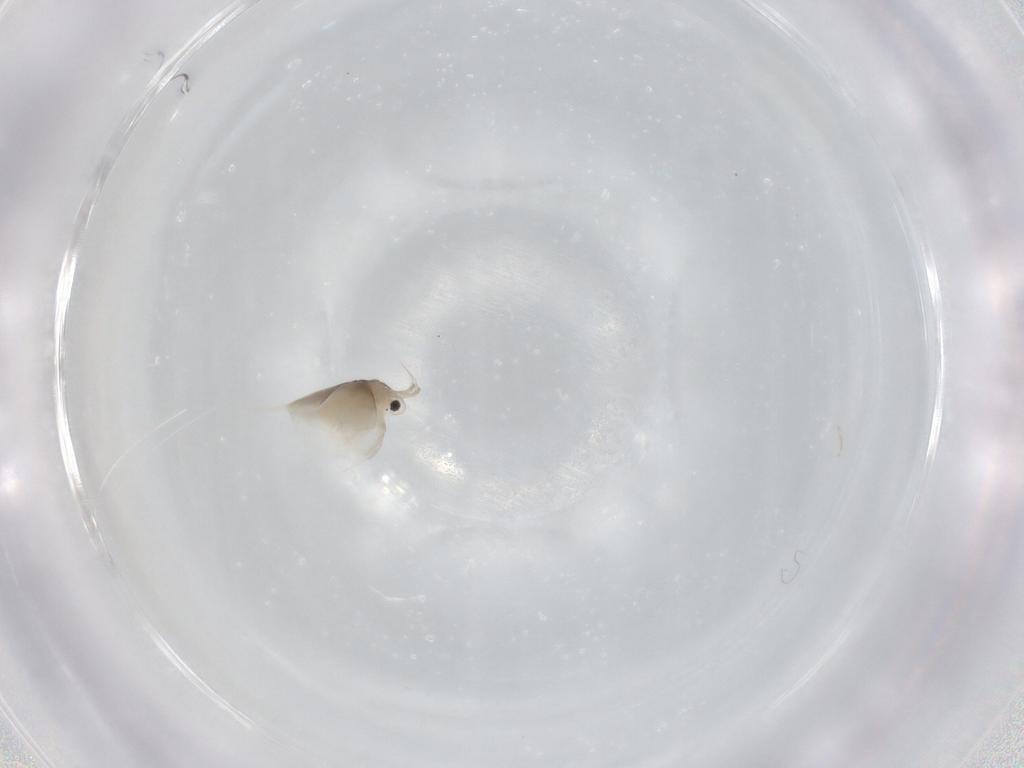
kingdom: Animalia
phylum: Arthropoda
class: Branchiopoda
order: Diplostraca
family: Daphniidae
